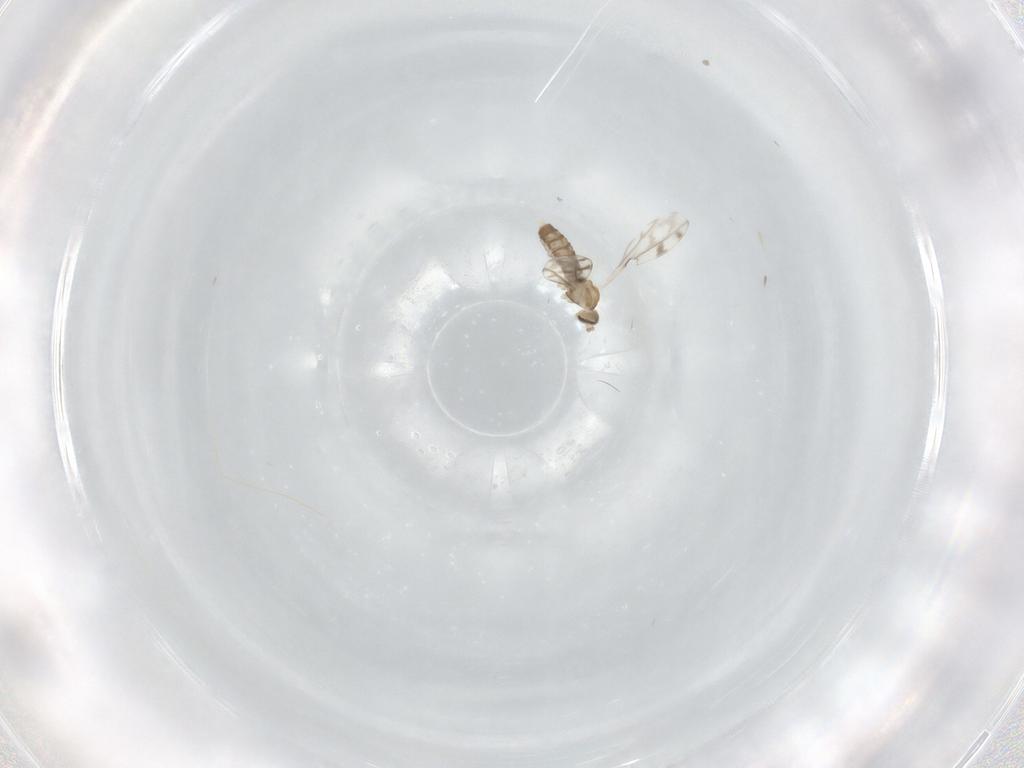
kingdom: Animalia
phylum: Arthropoda
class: Insecta
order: Diptera
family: Cecidomyiidae
